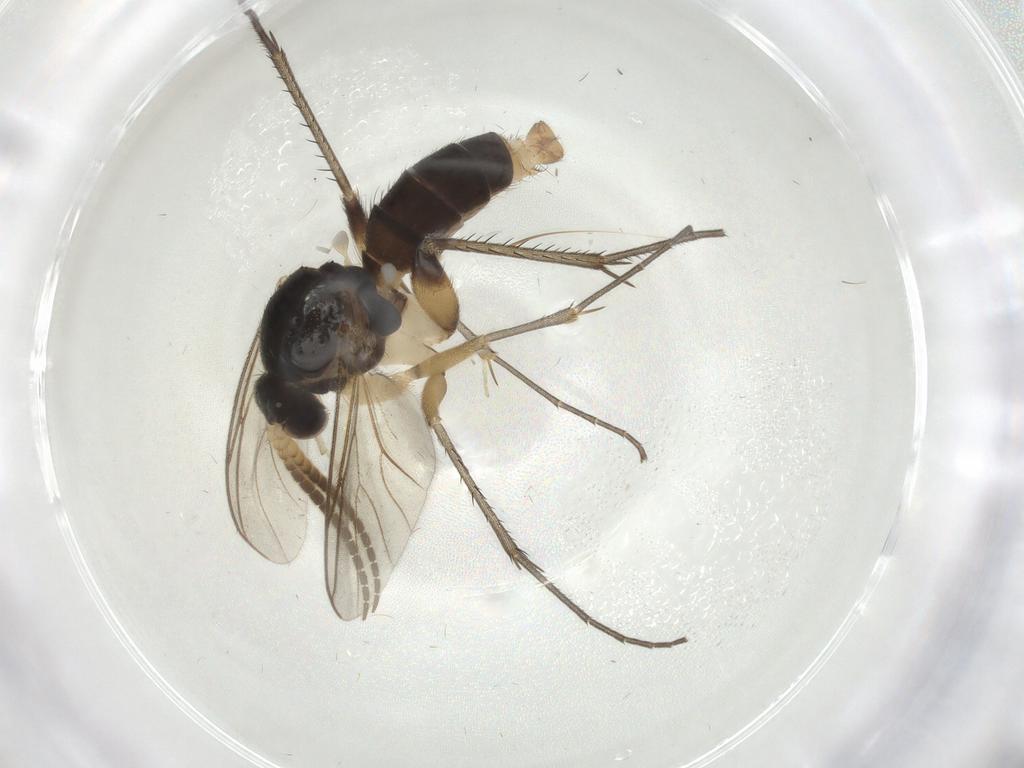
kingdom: Animalia
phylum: Arthropoda
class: Insecta
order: Diptera
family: Mycetophilidae
